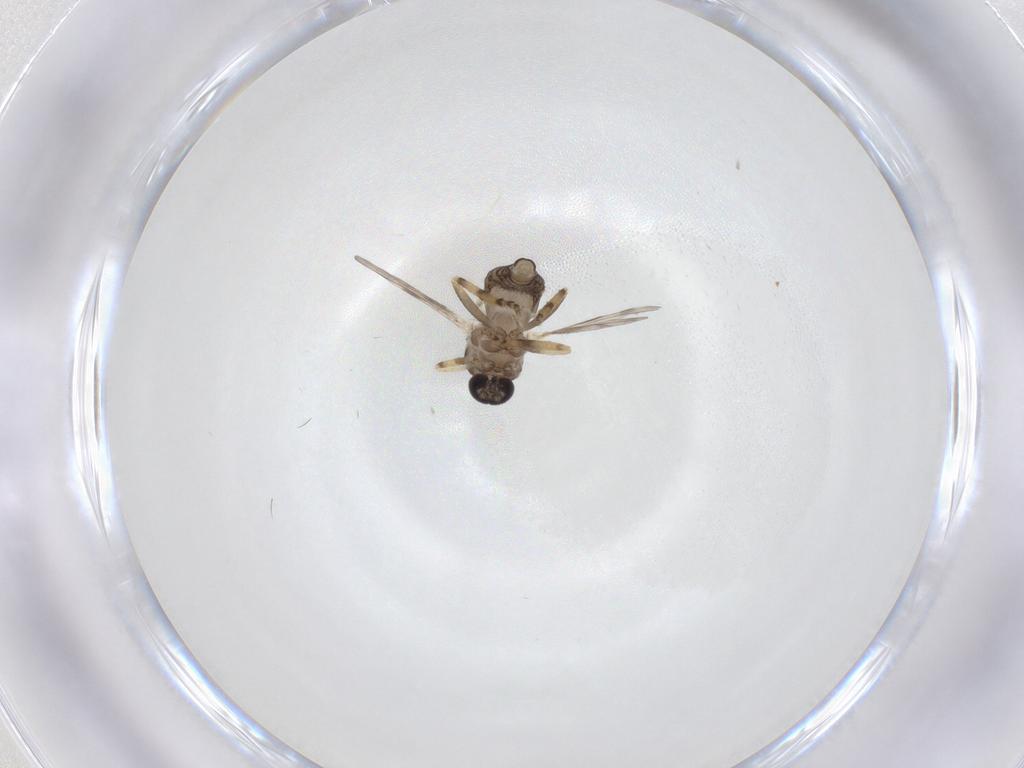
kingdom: Animalia
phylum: Arthropoda
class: Insecta
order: Diptera
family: Ceratopogonidae
